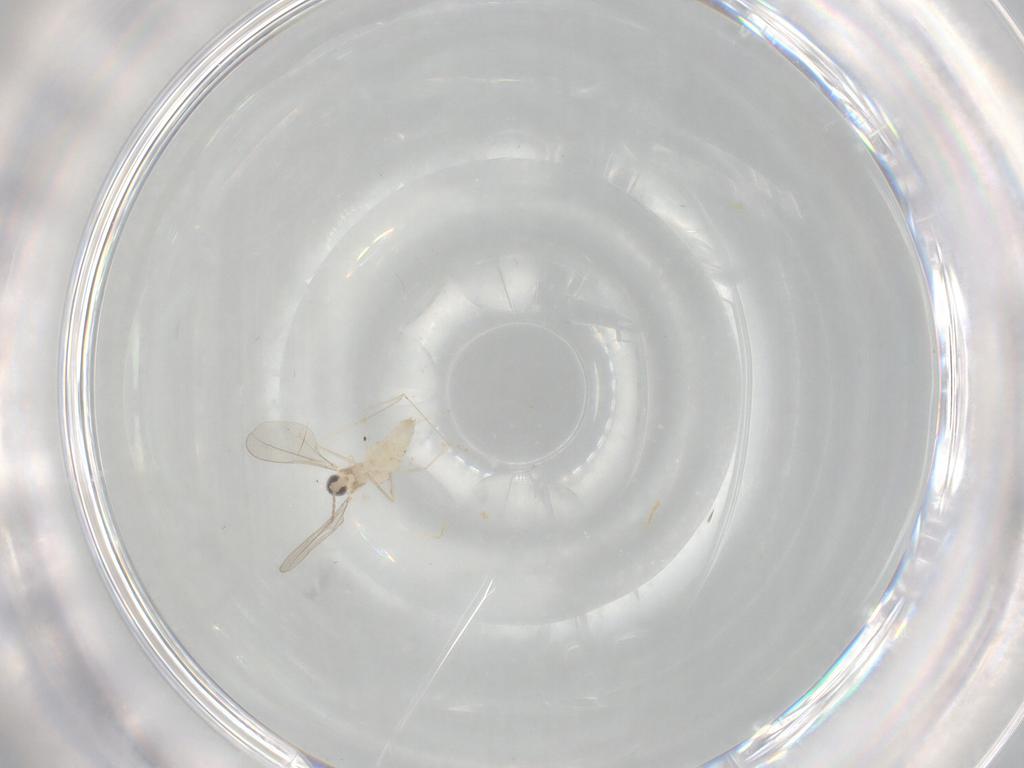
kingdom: Animalia
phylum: Arthropoda
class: Insecta
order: Diptera
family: Cecidomyiidae
